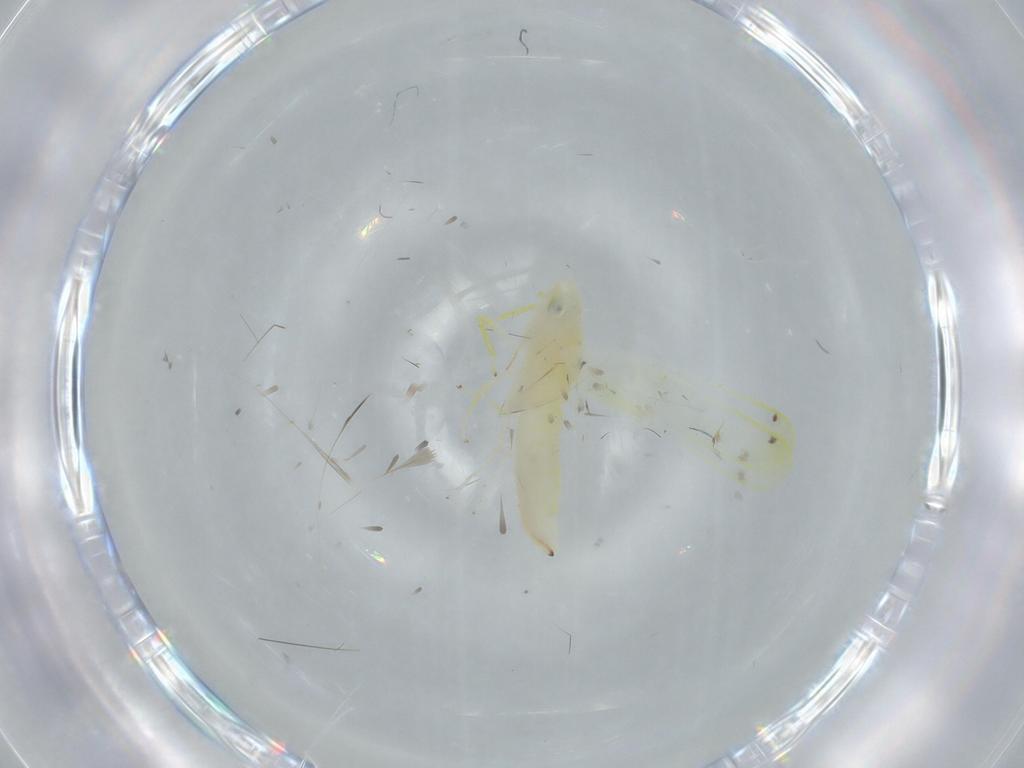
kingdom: Animalia
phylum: Arthropoda
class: Insecta
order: Hemiptera
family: Cicadellidae
